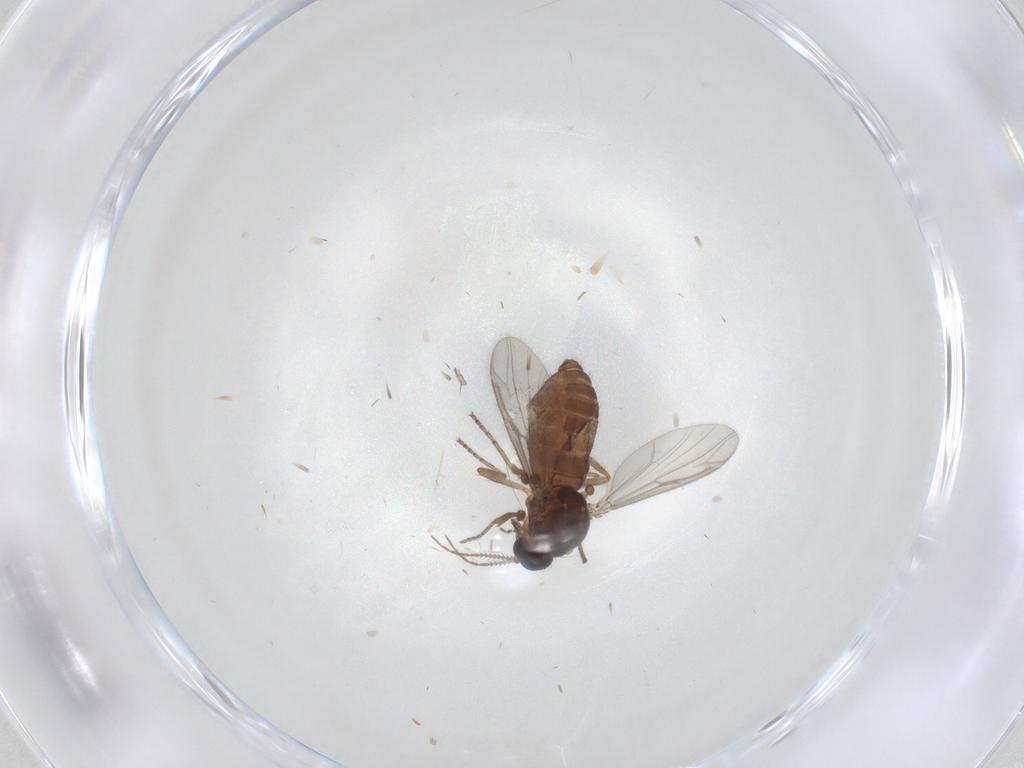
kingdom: Animalia
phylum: Arthropoda
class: Insecta
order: Diptera
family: Ceratopogonidae
